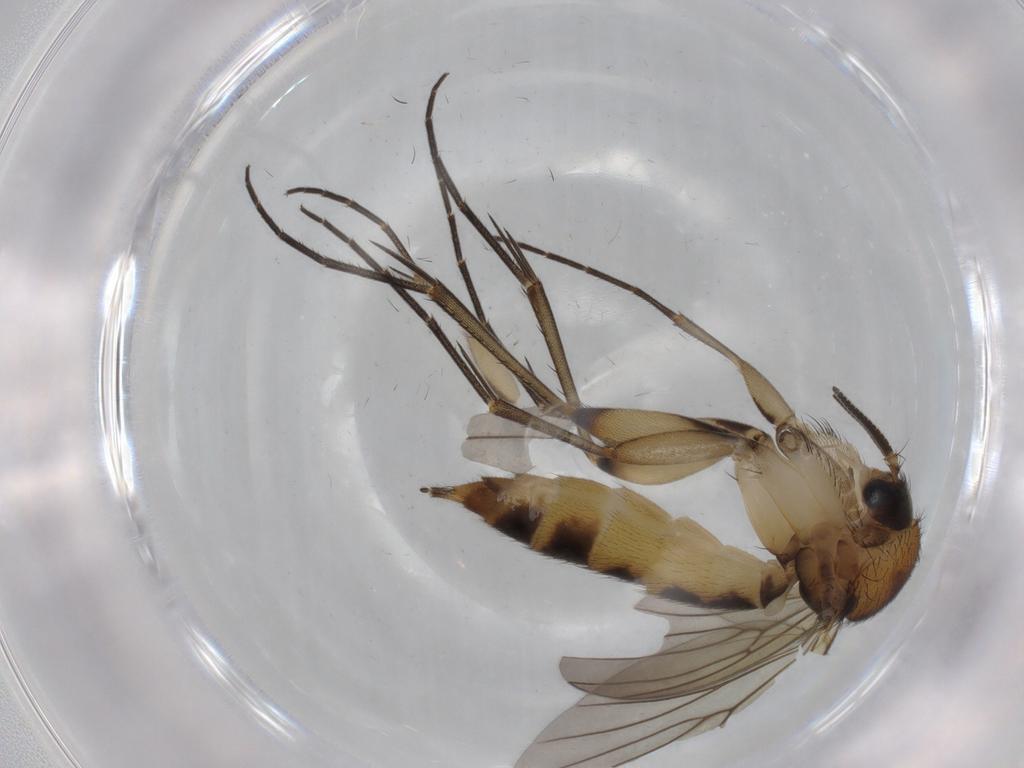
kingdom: Animalia
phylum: Arthropoda
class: Insecta
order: Diptera
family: Mycetophilidae
